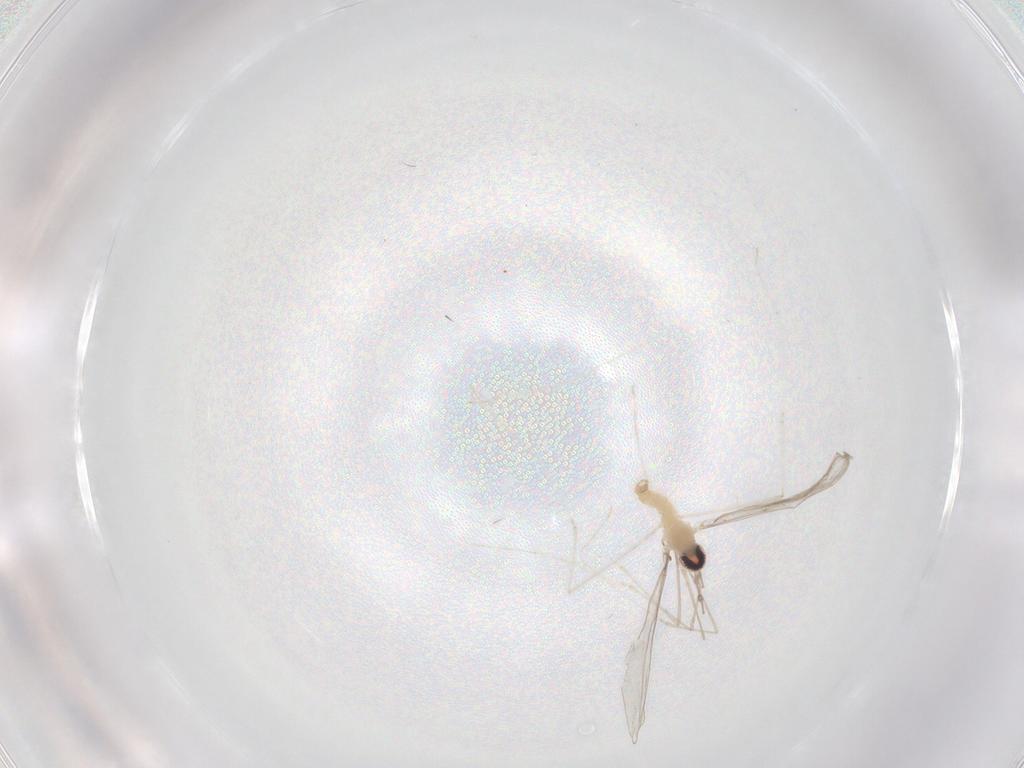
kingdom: Animalia
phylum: Arthropoda
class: Insecta
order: Diptera
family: Cecidomyiidae
